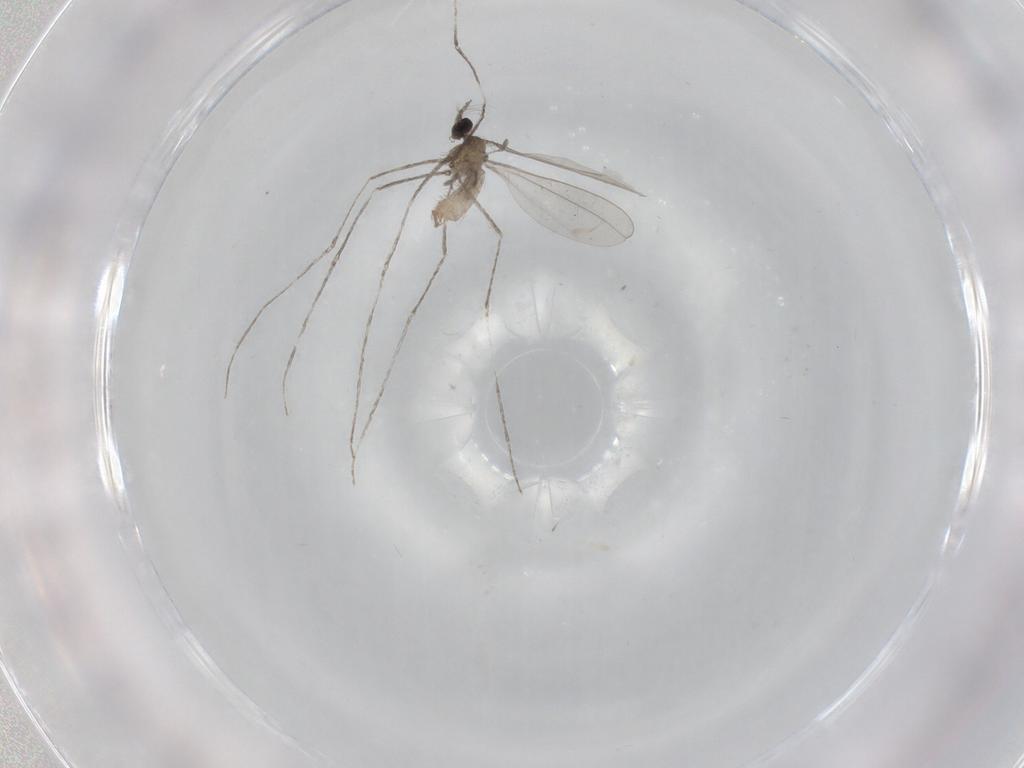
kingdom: Animalia
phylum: Arthropoda
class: Insecta
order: Diptera
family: Cecidomyiidae
